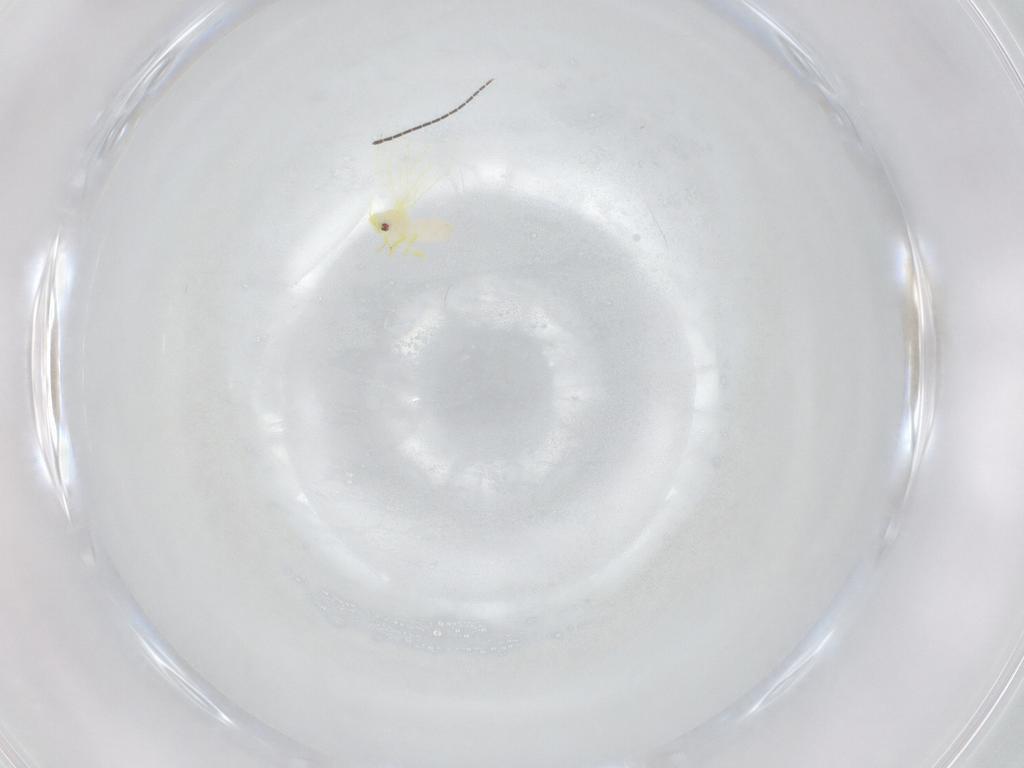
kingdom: Animalia
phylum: Arthropoda
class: Insecta
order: Hemiptera
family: Aleyrodidae
